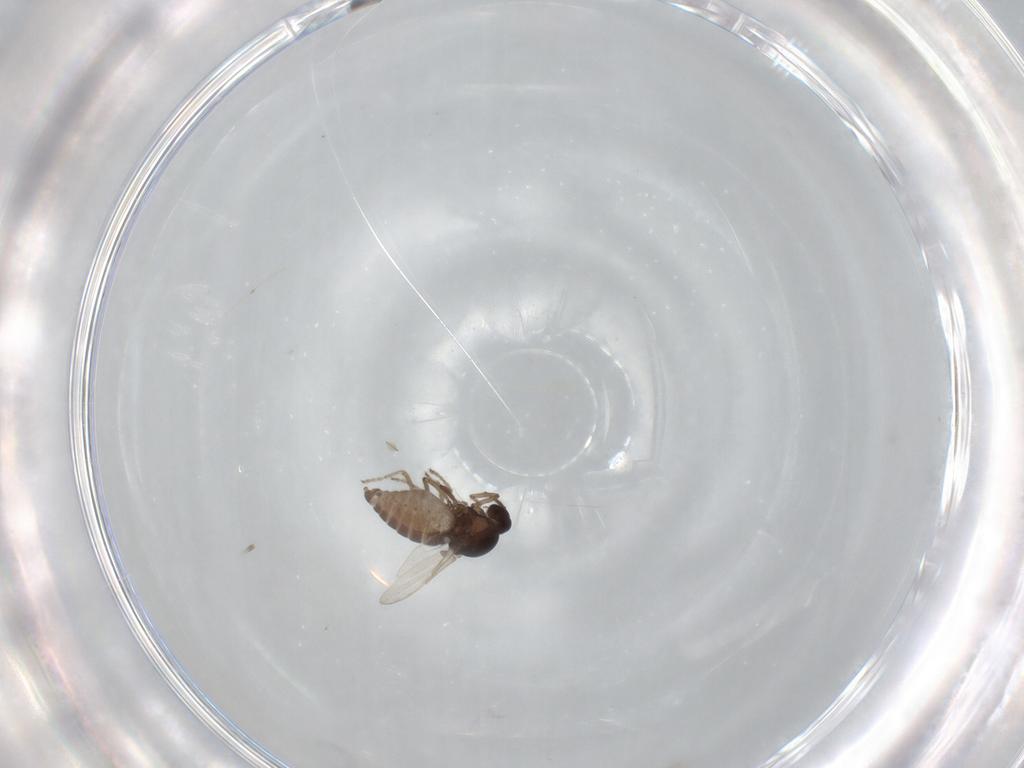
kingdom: Animalia
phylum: Arthropoda
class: Insecta
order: Diptera
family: Ceratopogonidae
